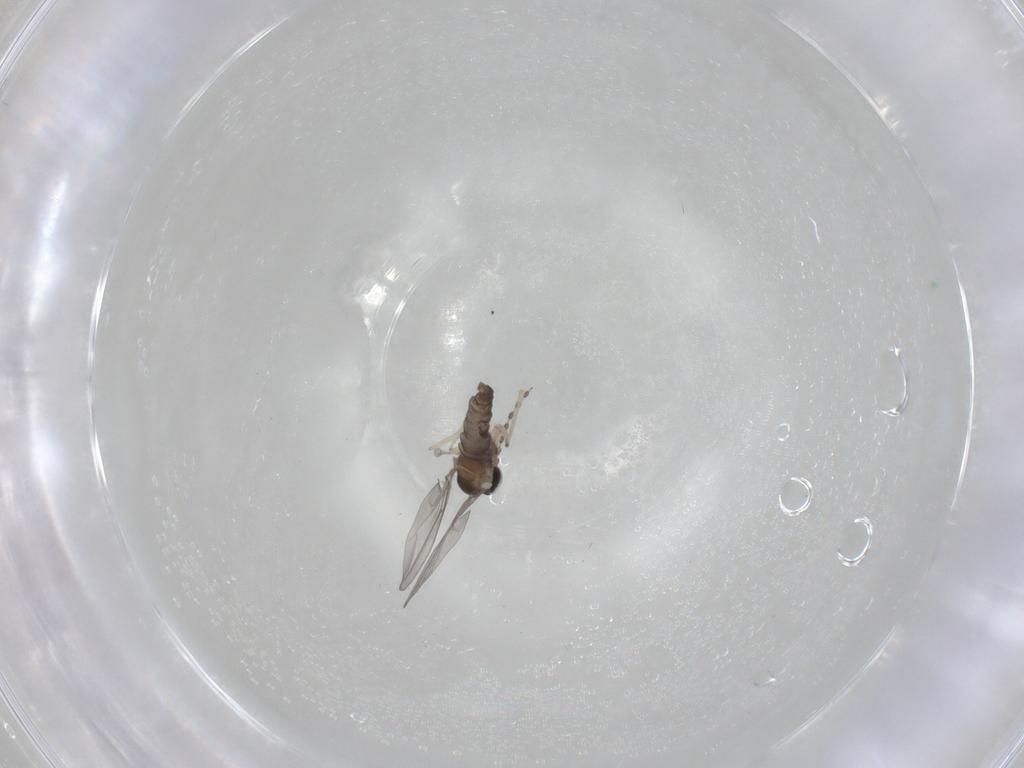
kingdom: Animalia
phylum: Arthropoda
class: Insecta
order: Diptera
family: Cecidomyiidae
